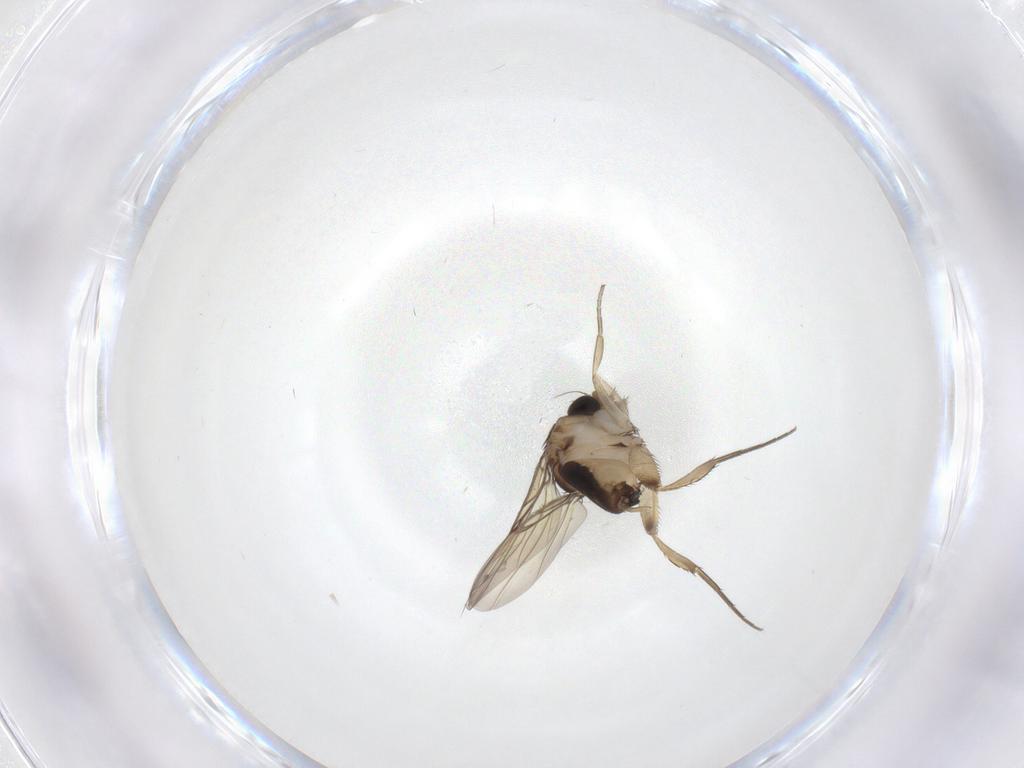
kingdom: Animalia
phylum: Arthropoda
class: Insecta
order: Diptera
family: Phoridae
